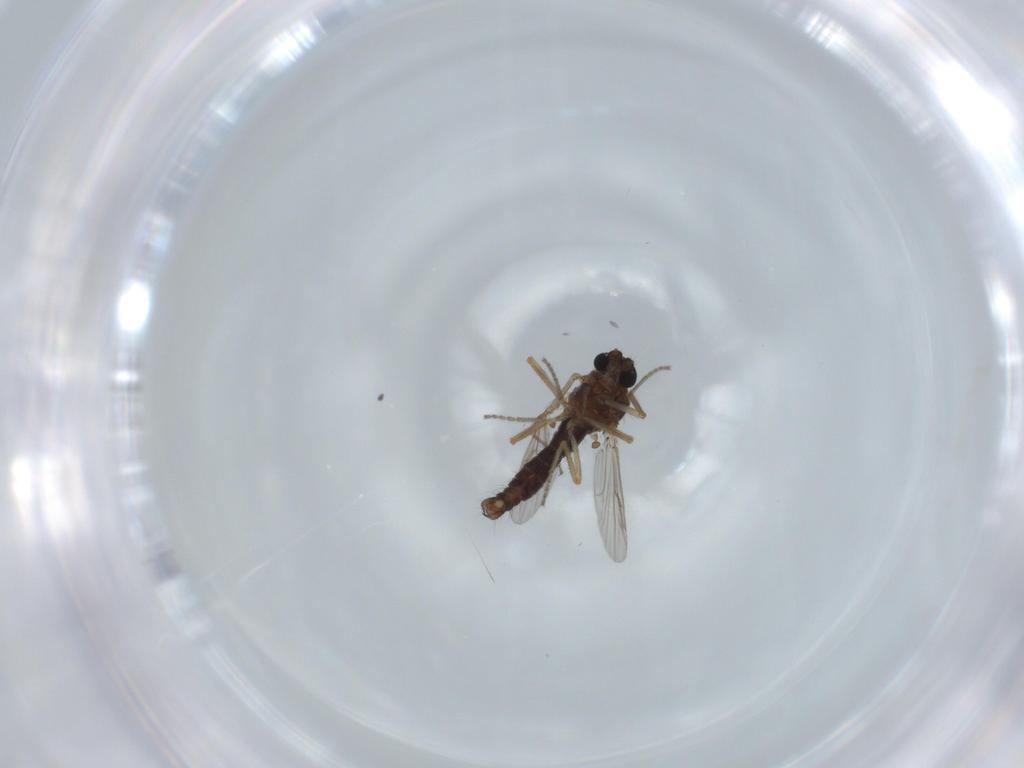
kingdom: Animalia
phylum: Arthropoda
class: Insecta
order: Diptera
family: Ceratopogonidae
